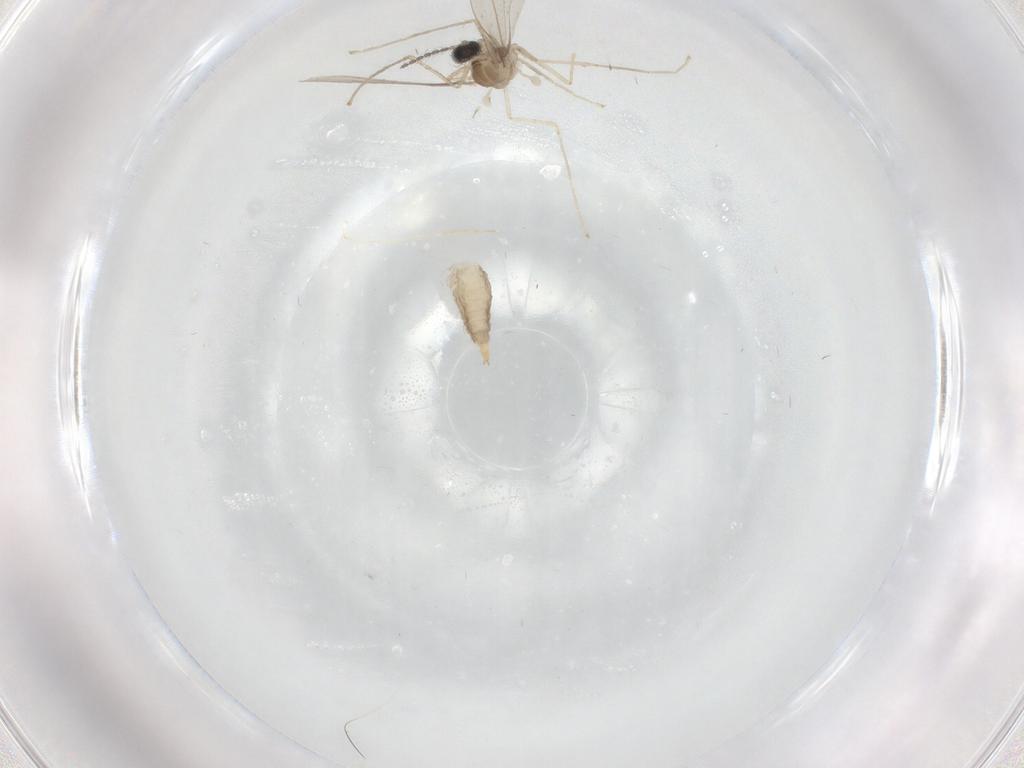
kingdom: Animalia
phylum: Arthropoda
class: Insecta
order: Diptera
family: Cecidomyiidae
